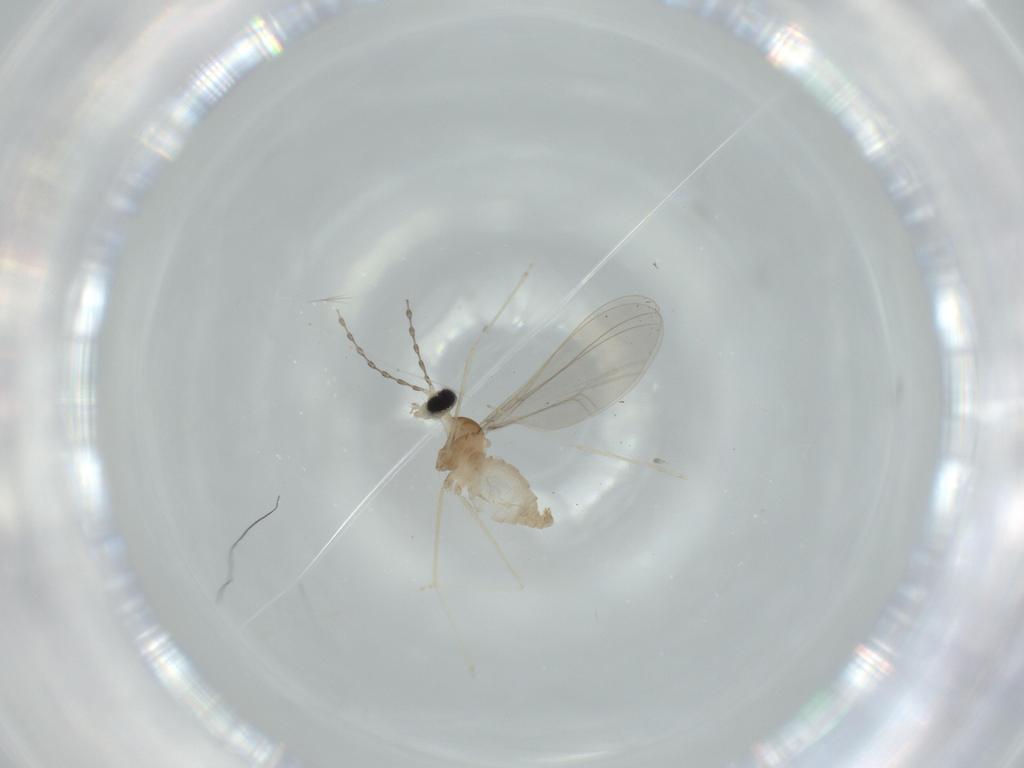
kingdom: Animalia
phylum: Arthropoda
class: Insecta
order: Diptera
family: Cecidomyiidae
